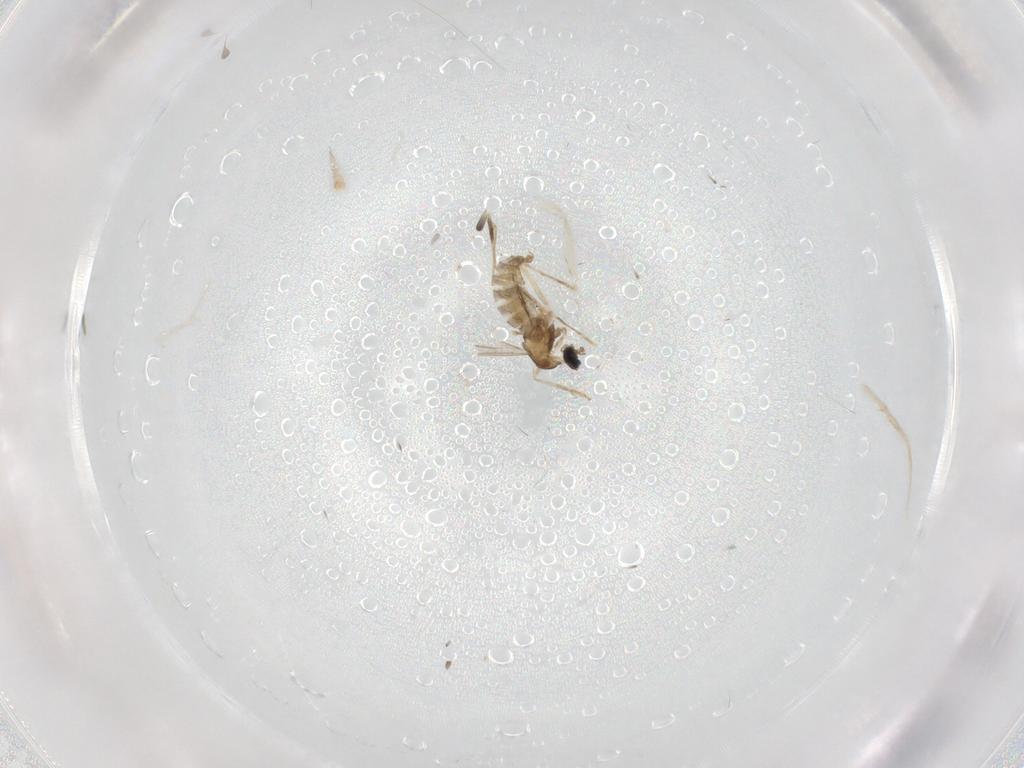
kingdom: Animalia
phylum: Arthropoda
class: Insecta
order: Diptera
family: Cecidomyiidae
